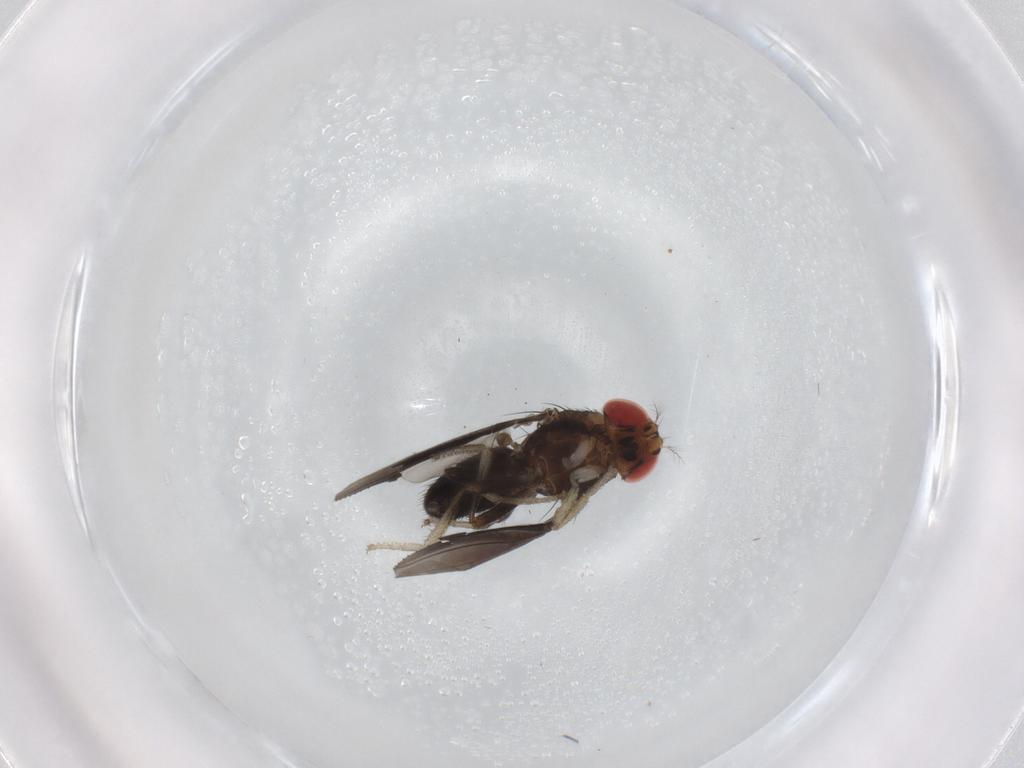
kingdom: Animalia
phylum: Arthropoda
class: Insecta
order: Diptera
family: Drosophilidae
